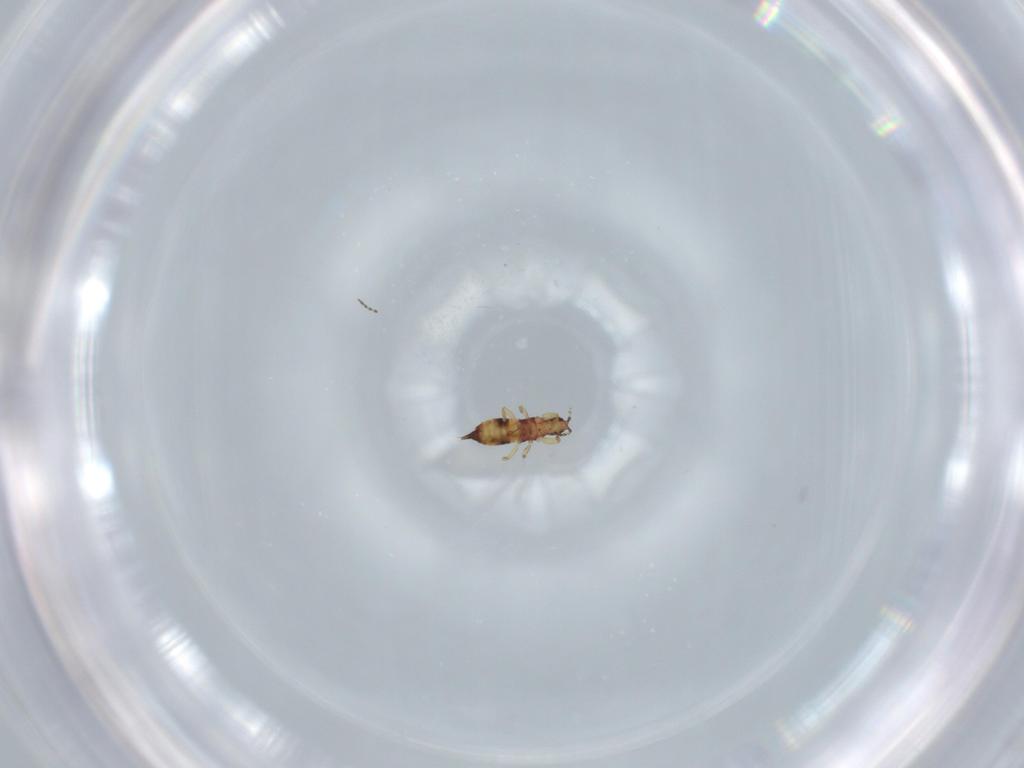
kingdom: Animalia
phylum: Arthropoda
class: Insecta
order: Thysanoptera
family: Phlaeothripidae
